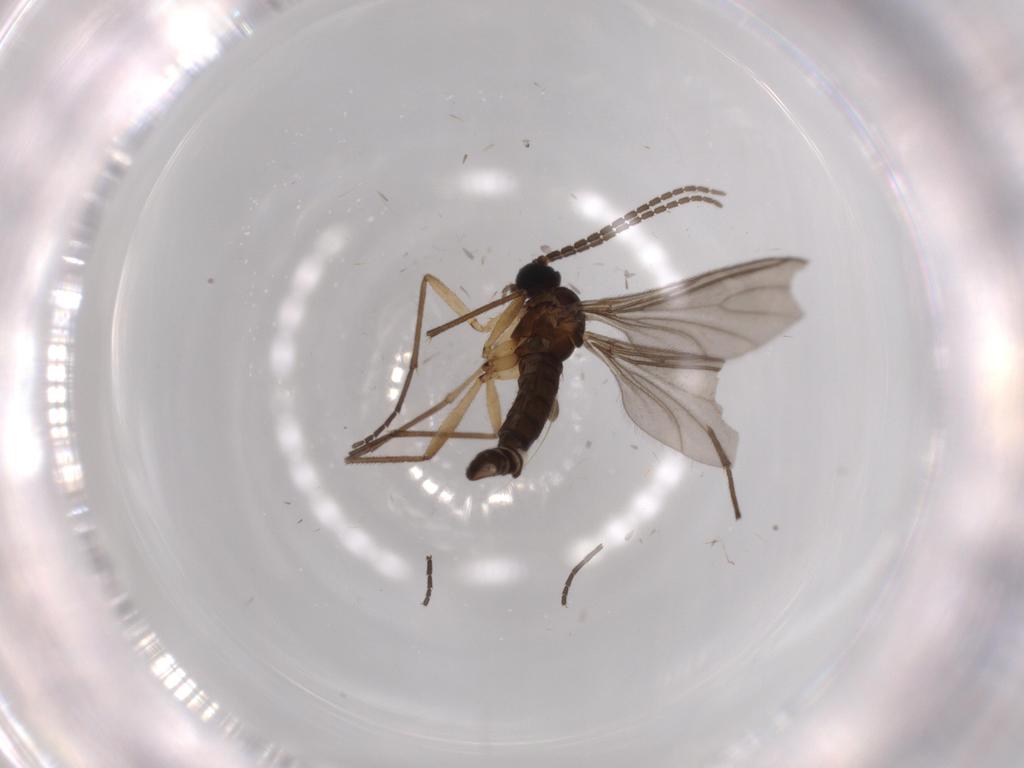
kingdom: Animalia
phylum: Arthropoda
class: Insecta
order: Diptera
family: Sciaridae
